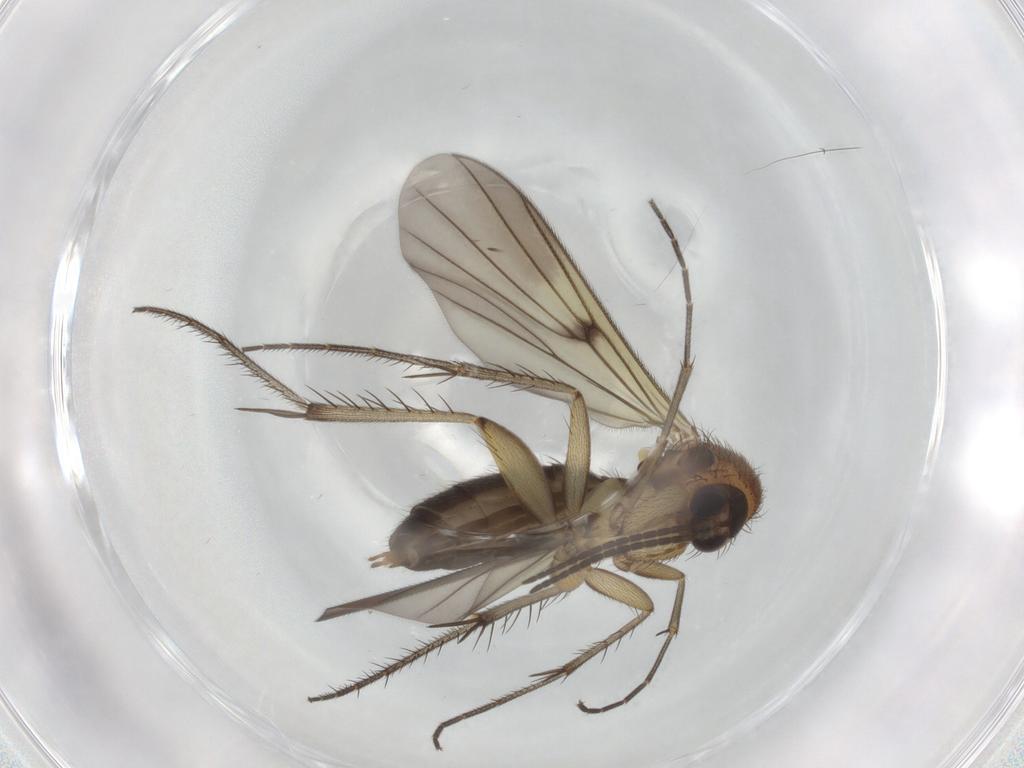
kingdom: Animalia
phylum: Arthropoda
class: Insecta
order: Diptera
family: Mycetophilidae
